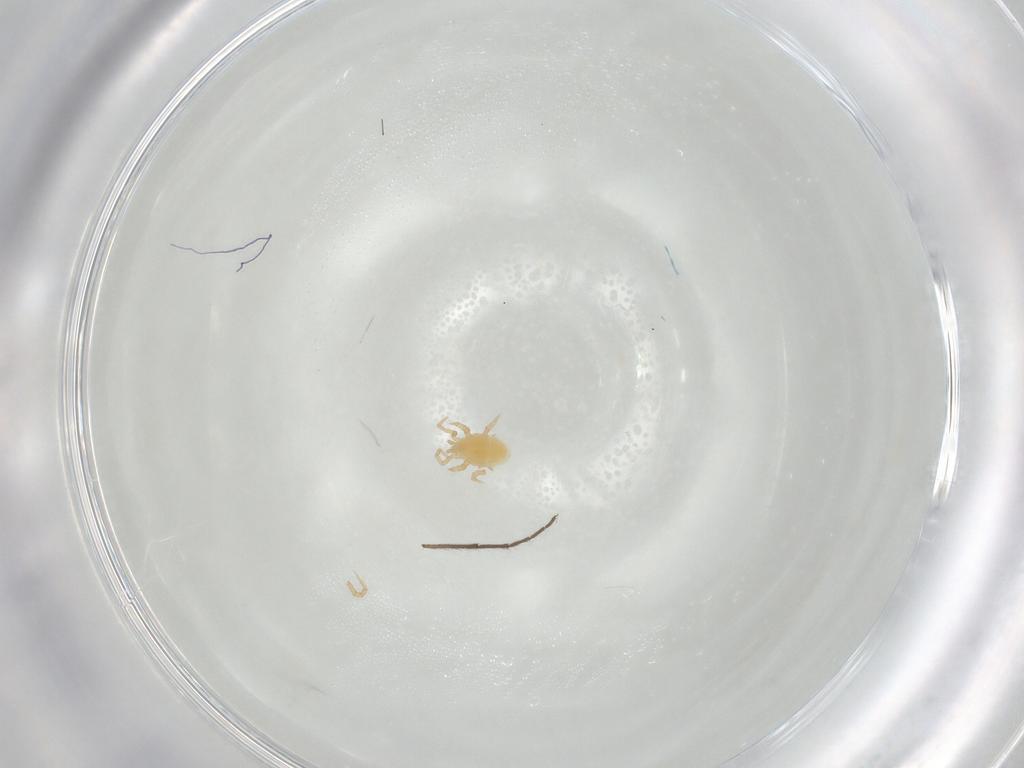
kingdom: Animalia
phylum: Arthropoda
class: Arachnida
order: Mesostigmata
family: Parasitidae
